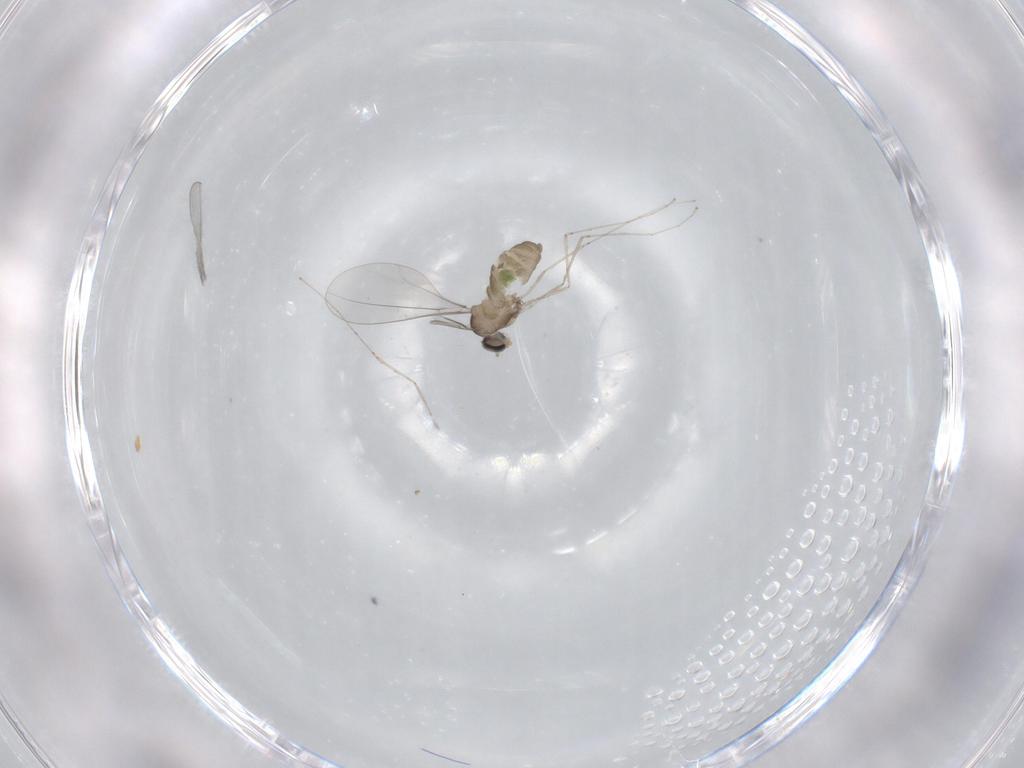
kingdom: Animalia
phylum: Arthropoda
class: Insecta
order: Diptera
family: Cecidomyiidae
